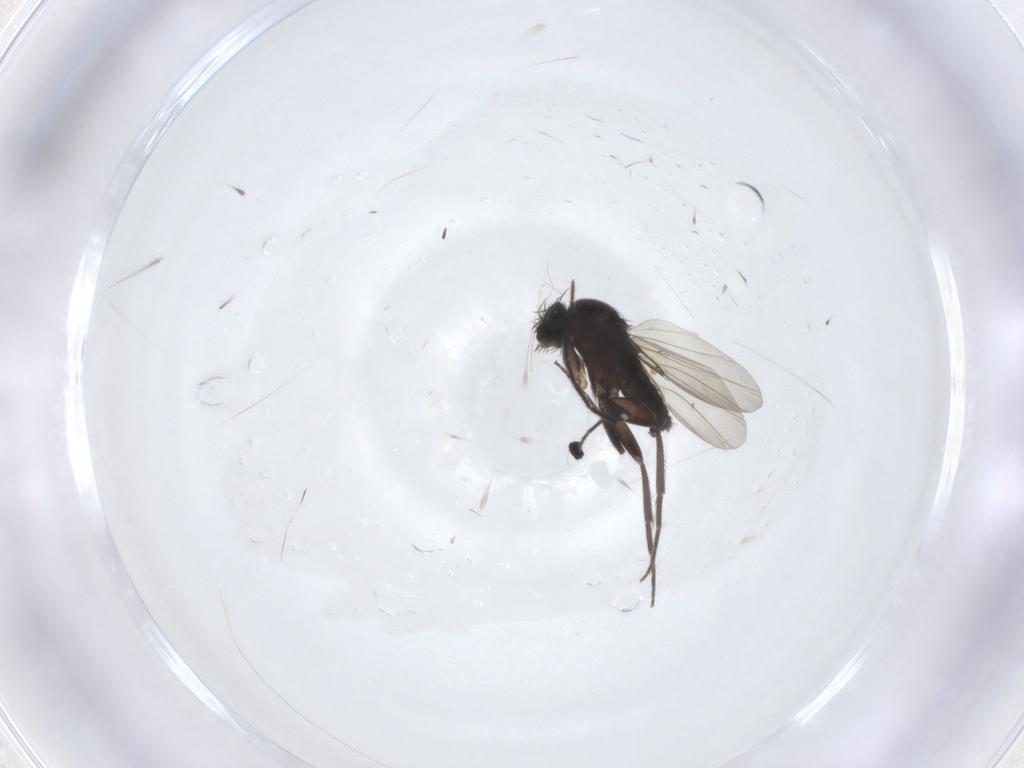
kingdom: Animalia
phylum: Arthropoda
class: Insecta
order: Diptera
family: Phoridae
